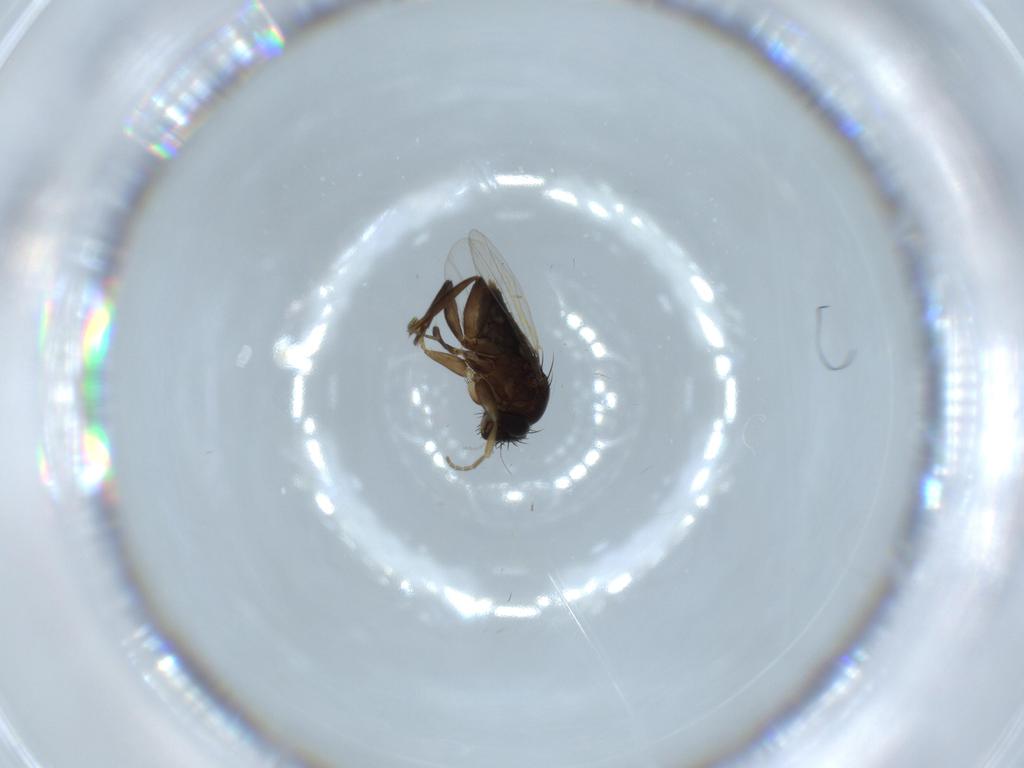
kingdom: Animalia
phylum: Arthropoda
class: Insecta
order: Diptera
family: Phoridae
